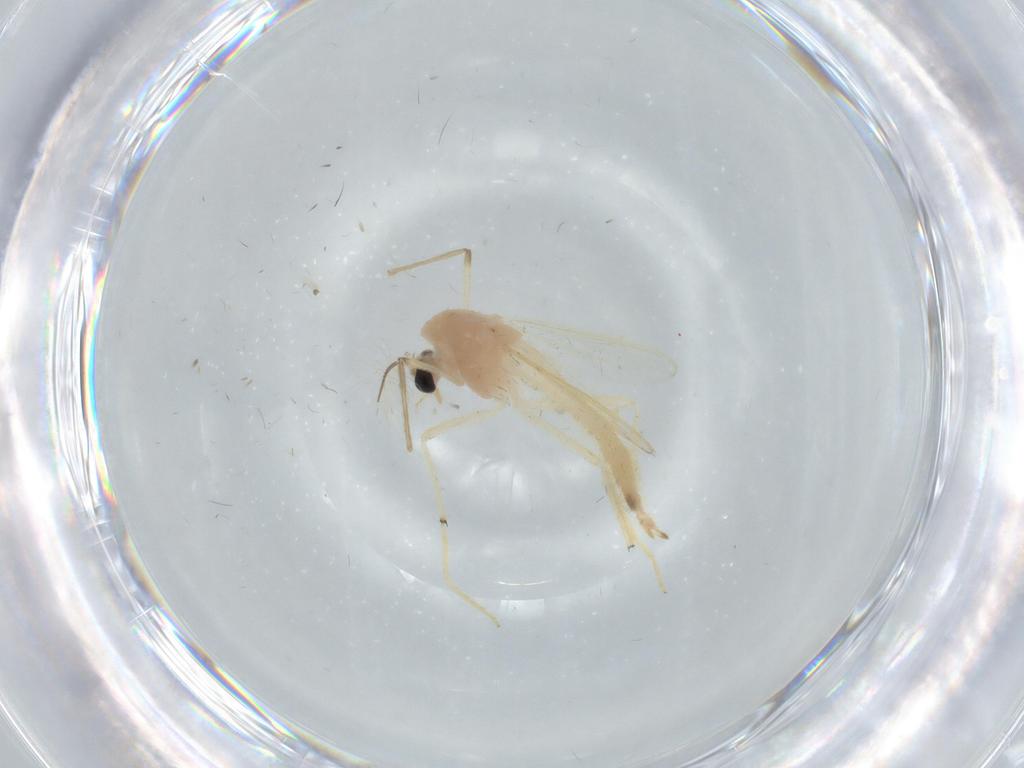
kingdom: Animalia
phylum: Arthropoda
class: Insecta
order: Diptera
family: Chironomidae
